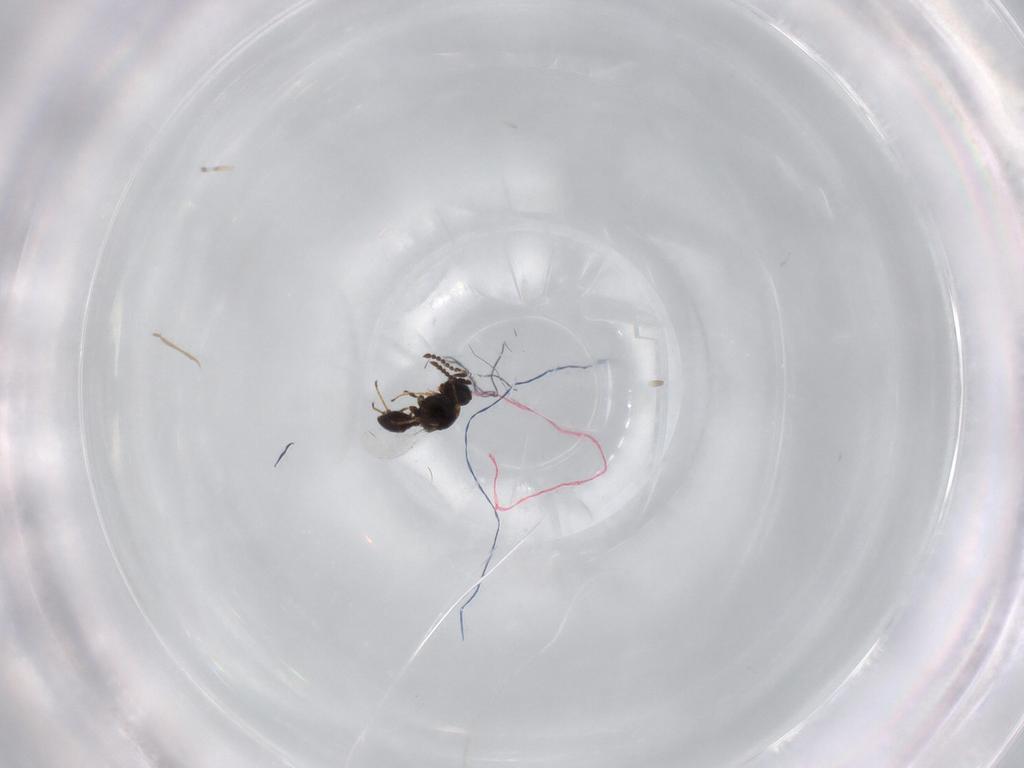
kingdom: Animalia
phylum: Arthropoda
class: Insecta
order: Hymenoptera
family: Platygastridae
